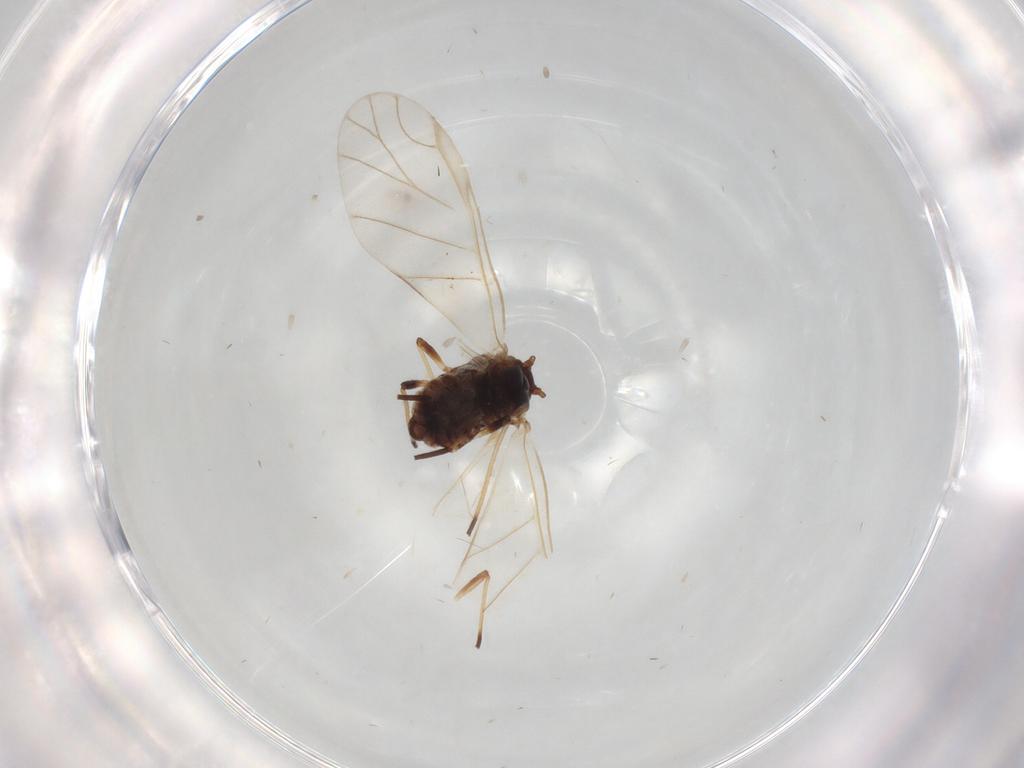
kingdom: Animalia
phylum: Arthropoda
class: Insecta
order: Hemiptera
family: Aphididae
